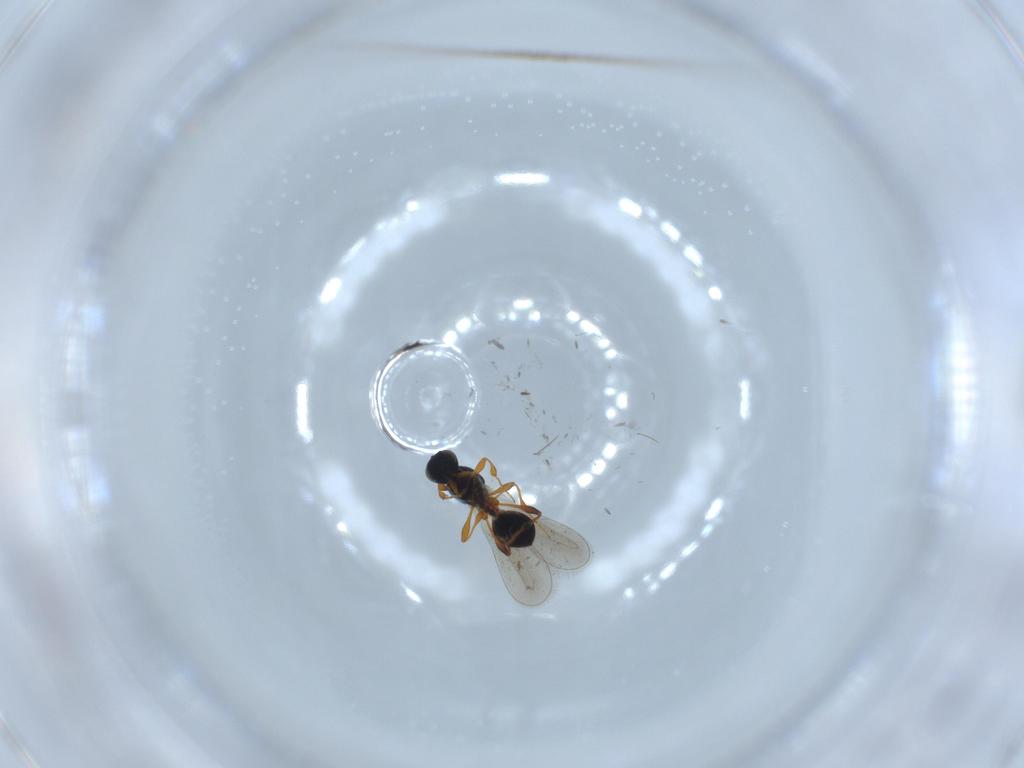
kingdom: Animalia
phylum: Arthropoda
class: Insecta
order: Hymenoptera
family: Platygastridae
